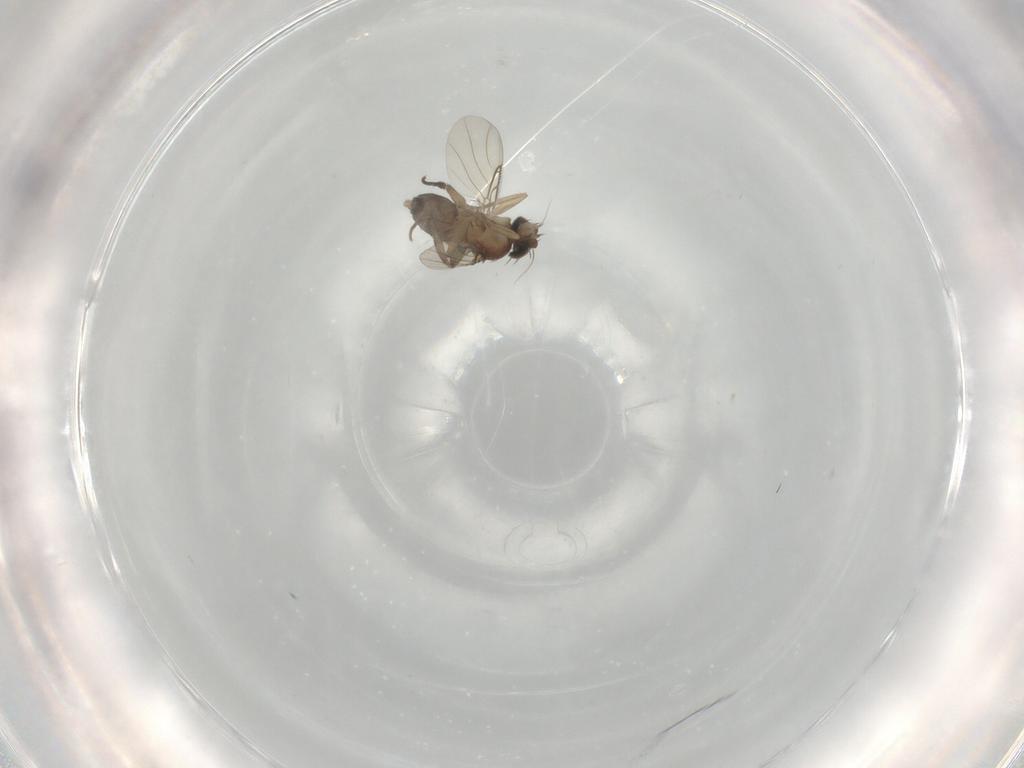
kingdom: Animalia
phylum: Arthropoda
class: Insecta
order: Diptera
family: Phoridae
